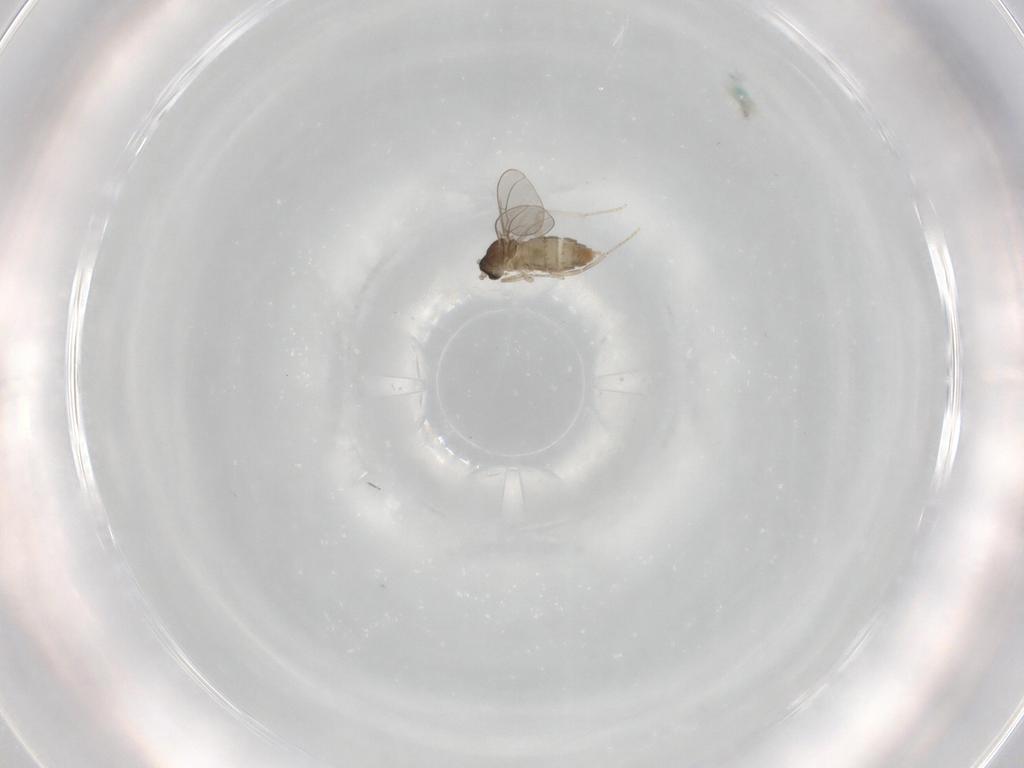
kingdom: Animalia
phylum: Arthropoda
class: Insecta
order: Diptera
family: Cecidomyiidae
